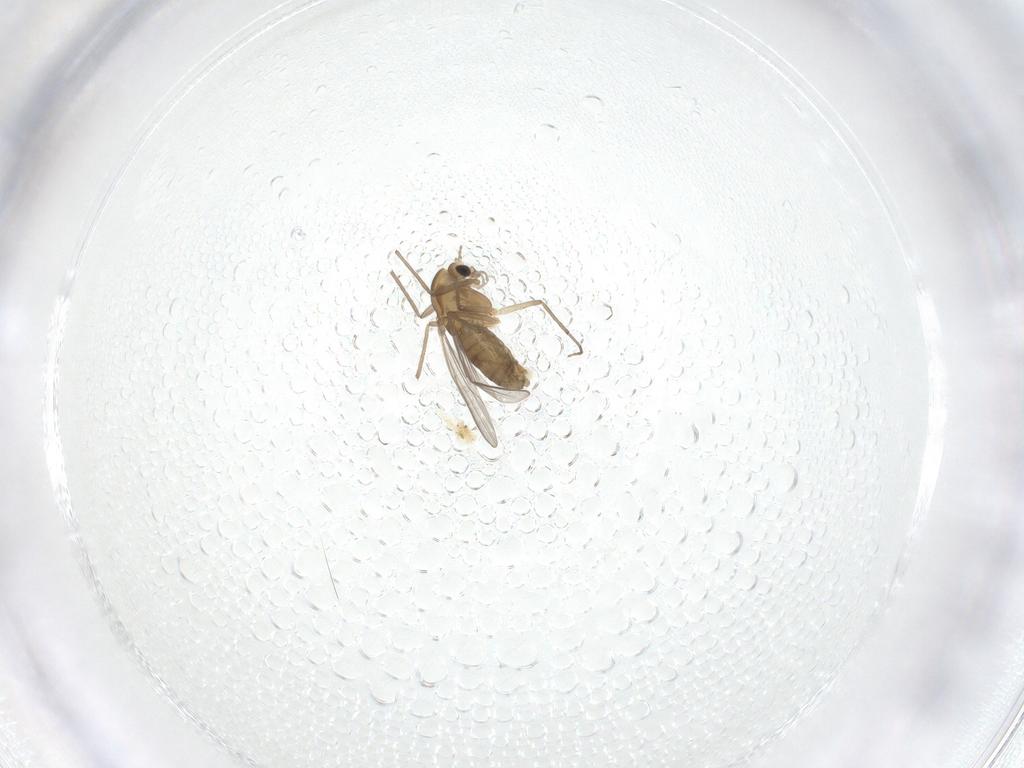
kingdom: Animalia
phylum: Arthropoda
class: Insecta
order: Diptera
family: Chironomidae
